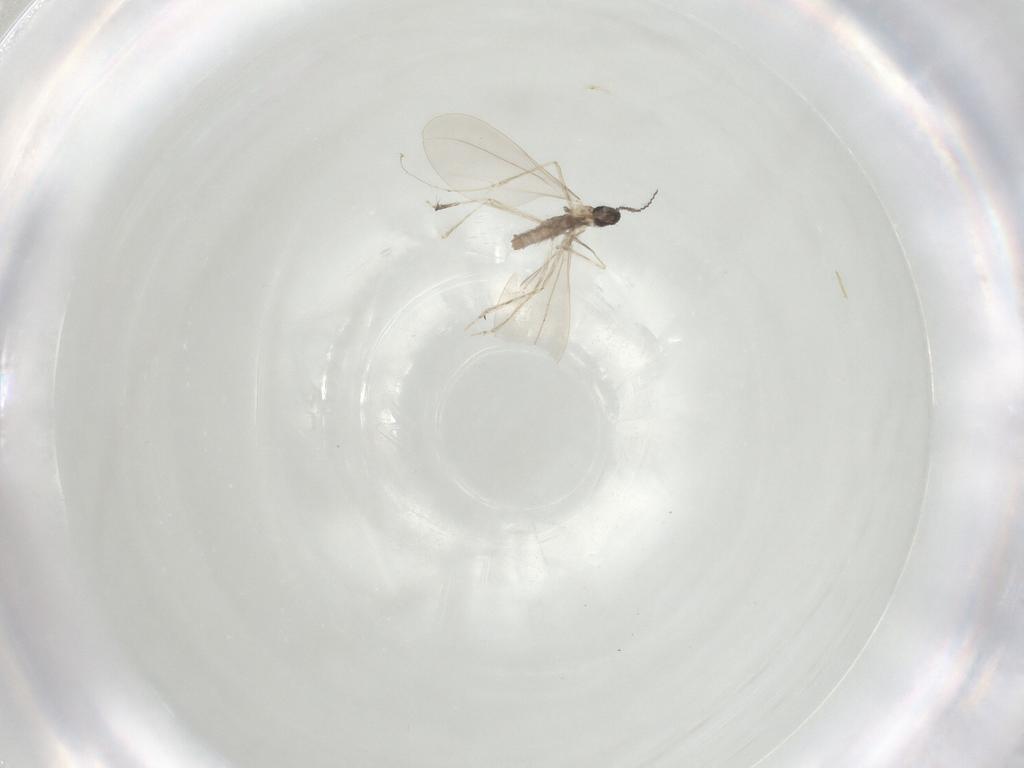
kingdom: Animalia
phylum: Arthropoda
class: Insecta
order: Diptera
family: Cecidomyiidae
